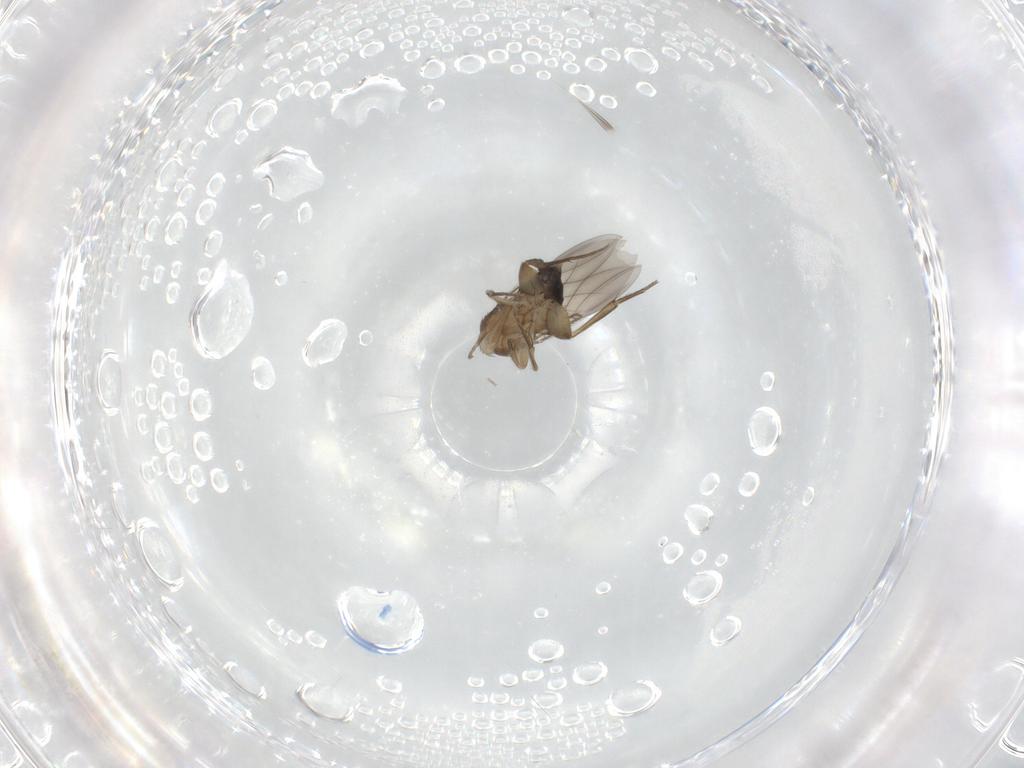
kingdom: Animalia
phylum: Arthropoda
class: Insecta
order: Diptera
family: Phoridae
